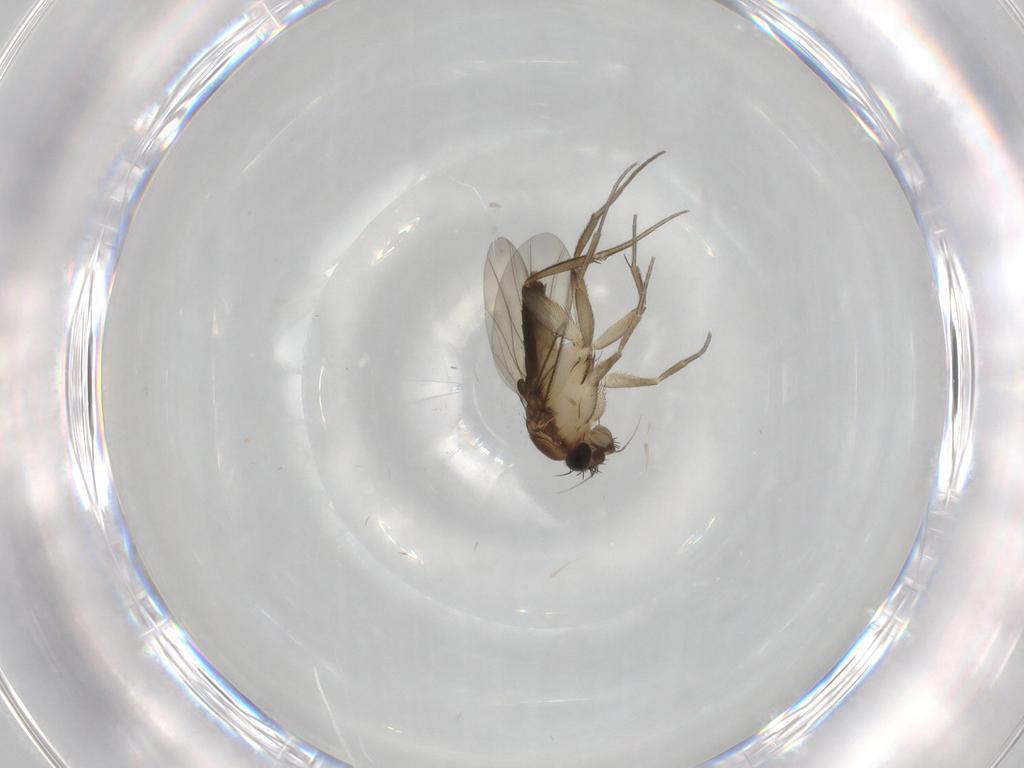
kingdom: Animalia
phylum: Arthropoda
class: Insecta
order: Diptera
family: Phoridae
